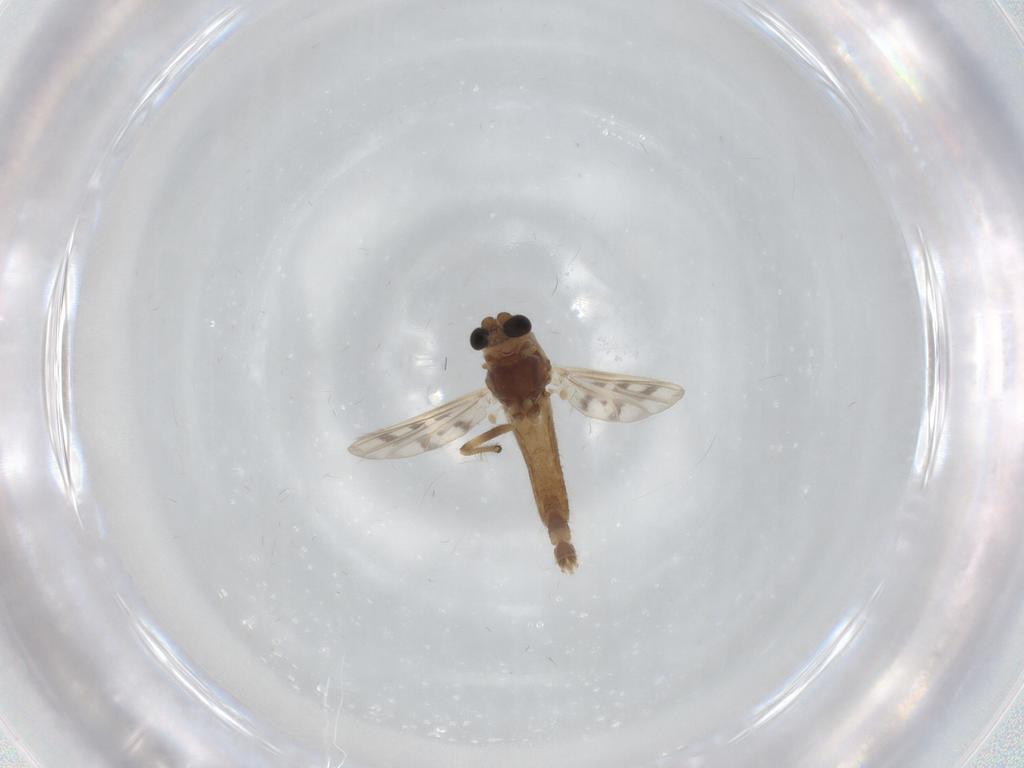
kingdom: Animalia
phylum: Arthropoda
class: Insecta
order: Diptera
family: Chironomidae
